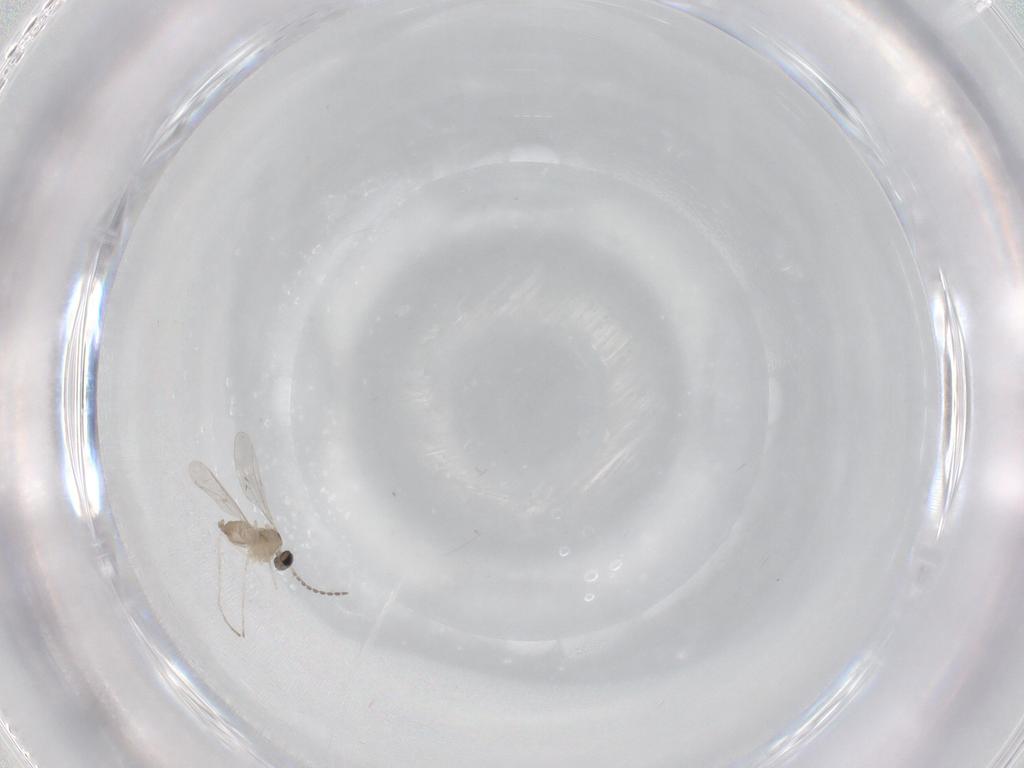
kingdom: Animalia
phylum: Arthropoda
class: Insecta
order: Diptera
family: Cecidomyiidae
